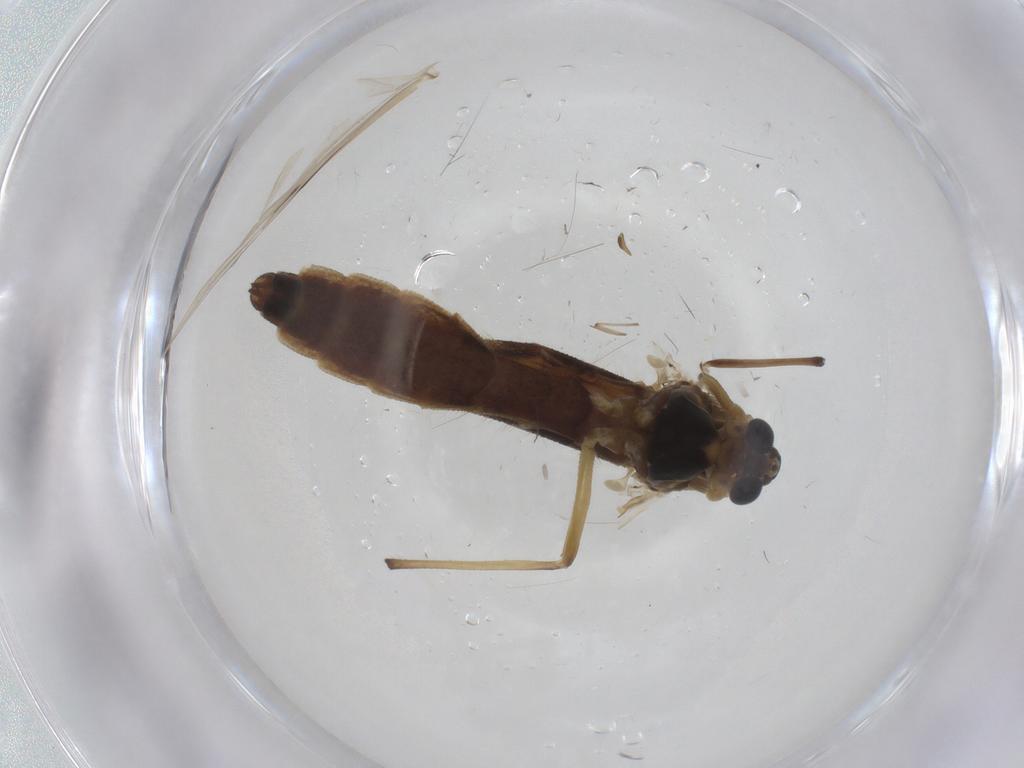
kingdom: Animalia
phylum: Arthropoda
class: Insecta
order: Diptera
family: Chironomidae
